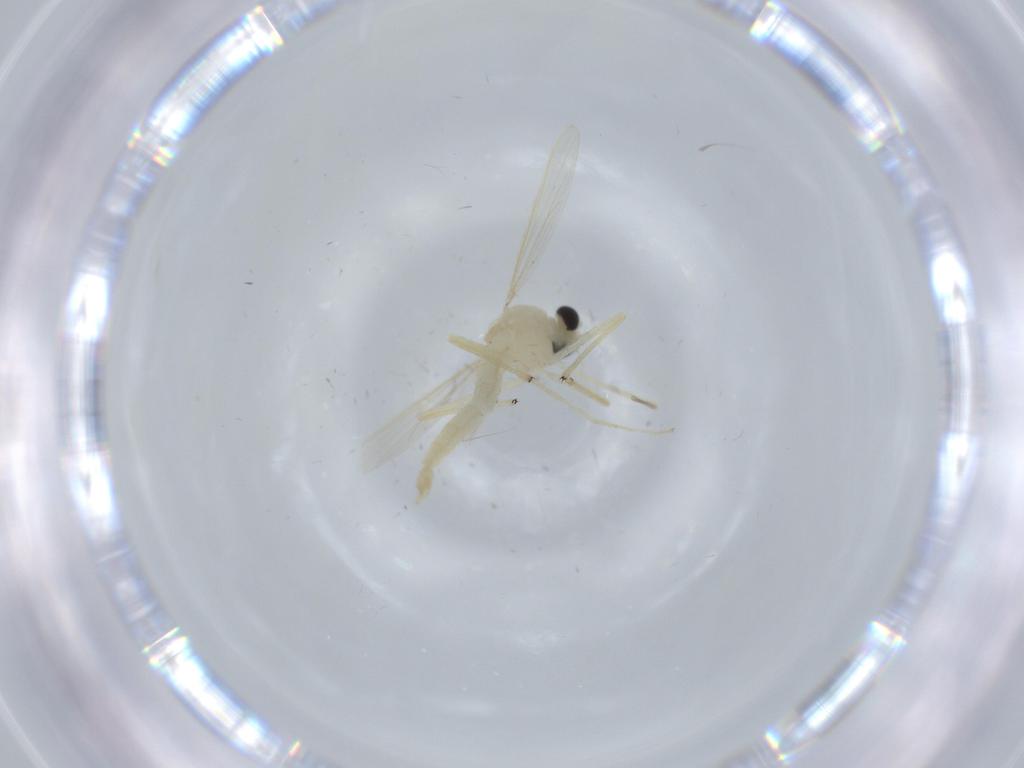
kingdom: Animalia
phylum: Arthropoda
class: Insecta
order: Diptera
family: Chironomidae
